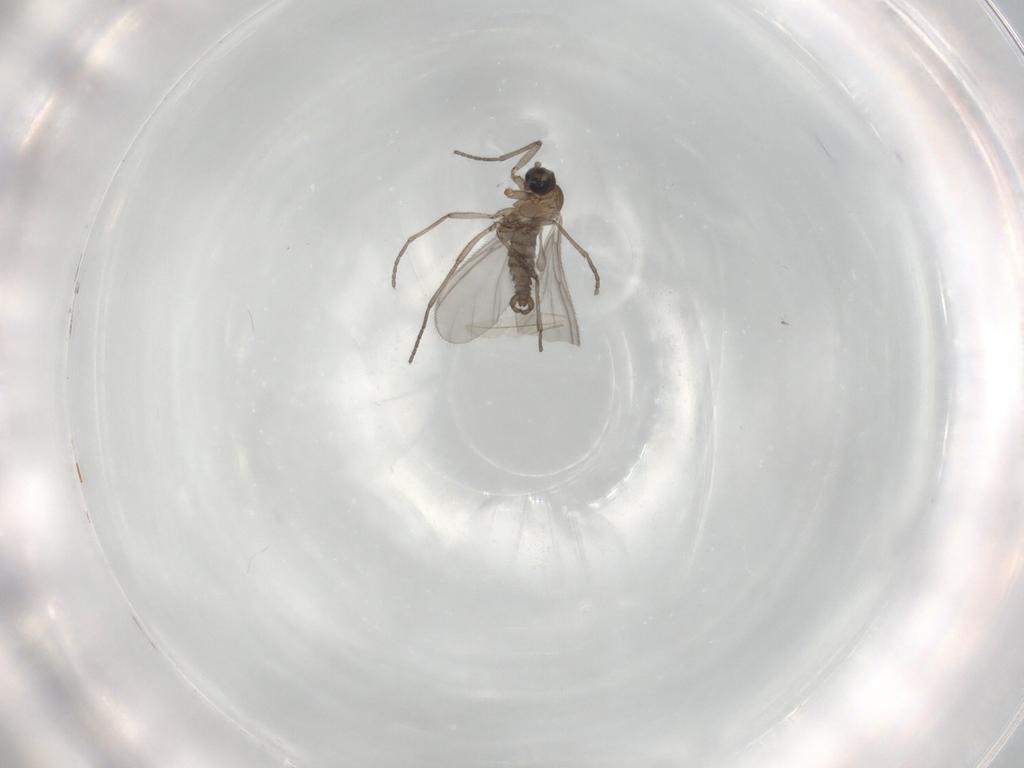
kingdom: Animalia
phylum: Arthropoda
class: Insecta
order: Diptera
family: Sciaridae
